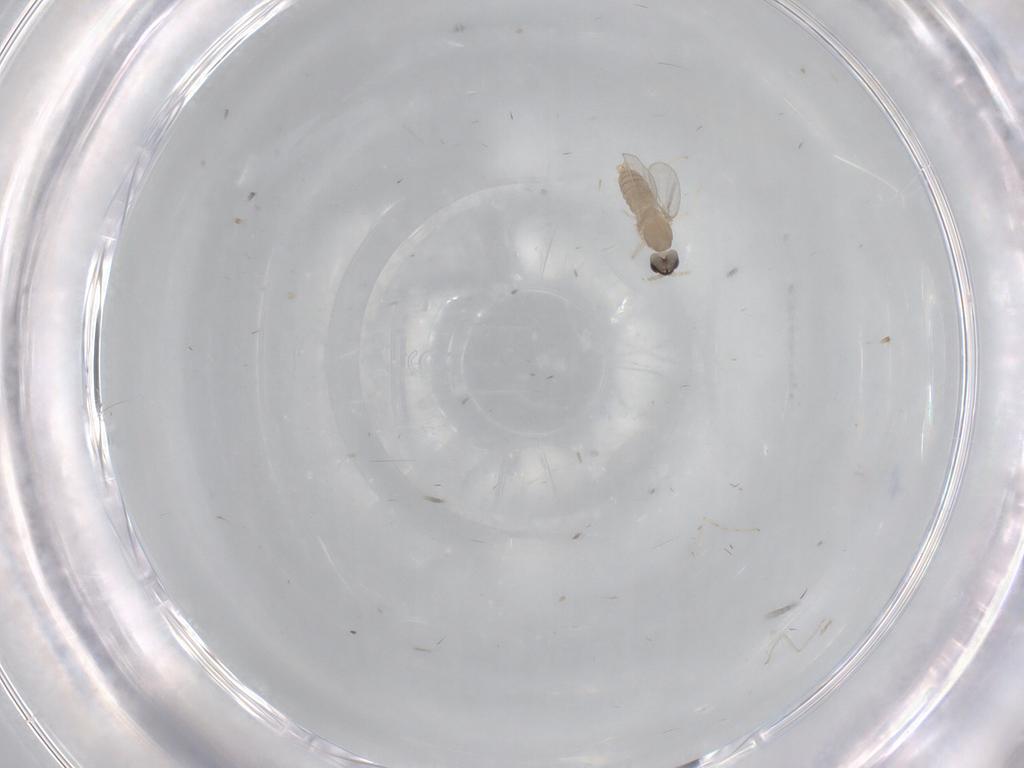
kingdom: Animalia
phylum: Arthropoda
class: Insecta
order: Diptera
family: Cecidomyiidae
